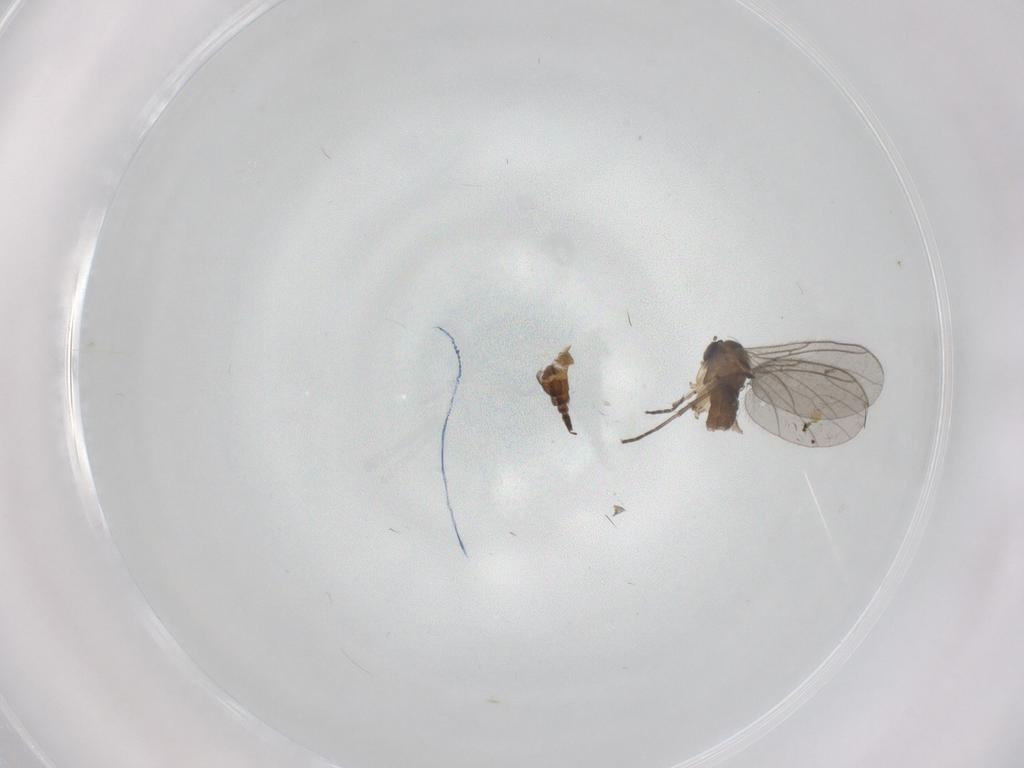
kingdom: Animalia
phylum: Arthropoda
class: Insecta
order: Diptera
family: Sciaridae
